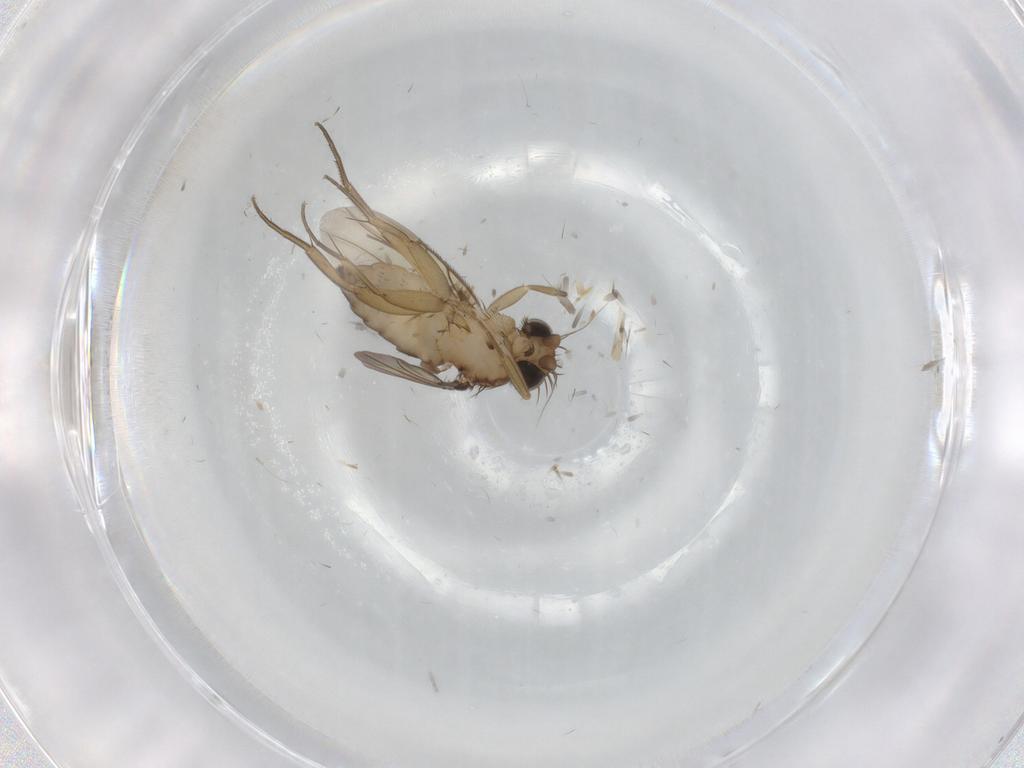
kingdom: Animalia
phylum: Arthropoda
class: Insecta
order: Diptera
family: Phoridae
